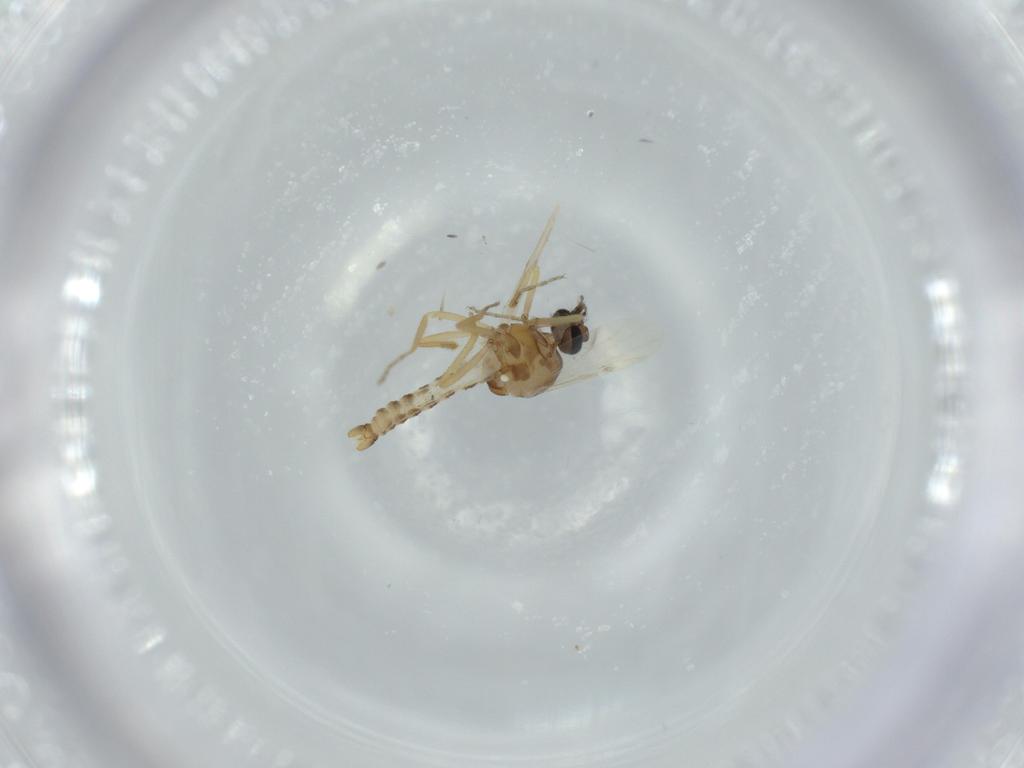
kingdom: Animalia
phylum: Arthropoda
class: Insecta
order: Diptera
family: Ceratopogonidae
